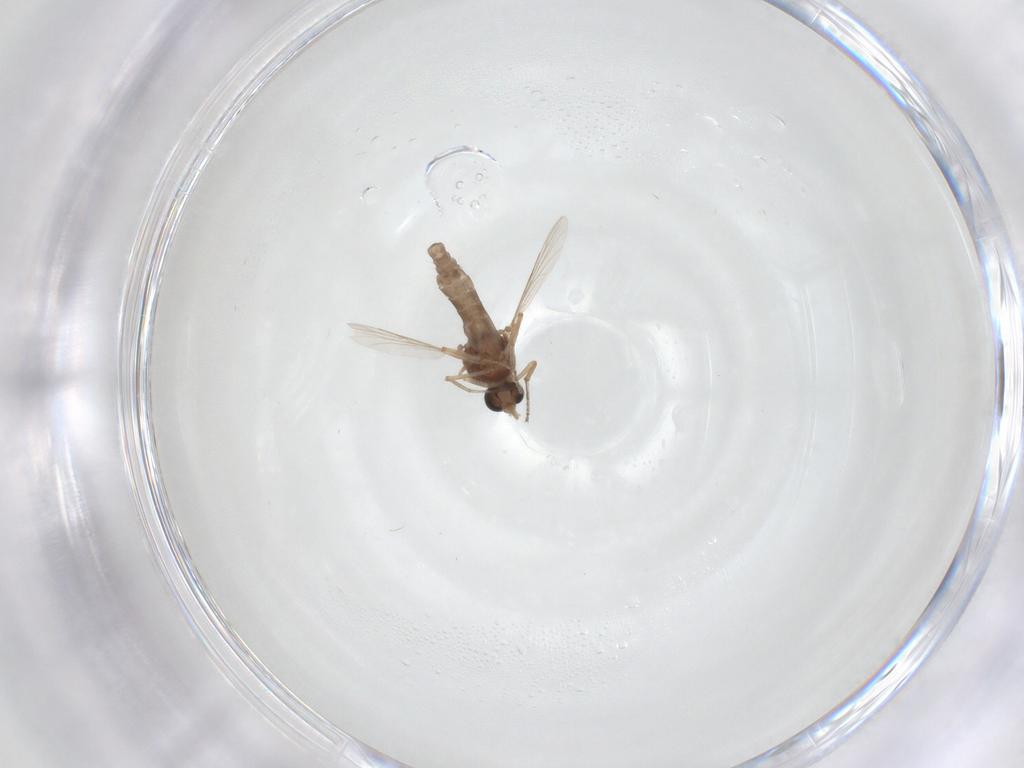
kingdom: Animalia
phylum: Arthropoda
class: Insecta
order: Diptera
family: Ceratopogonidae
